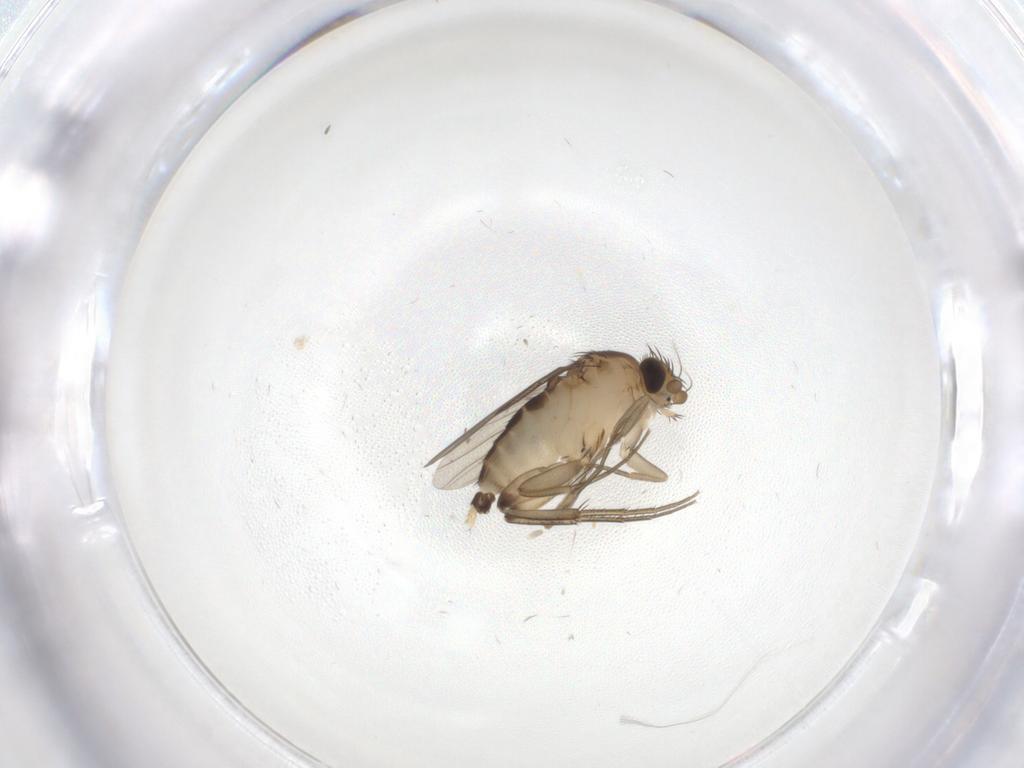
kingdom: Animalia
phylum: Arthropoda
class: Insecta
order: Diptera
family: Cecidomyiidae
